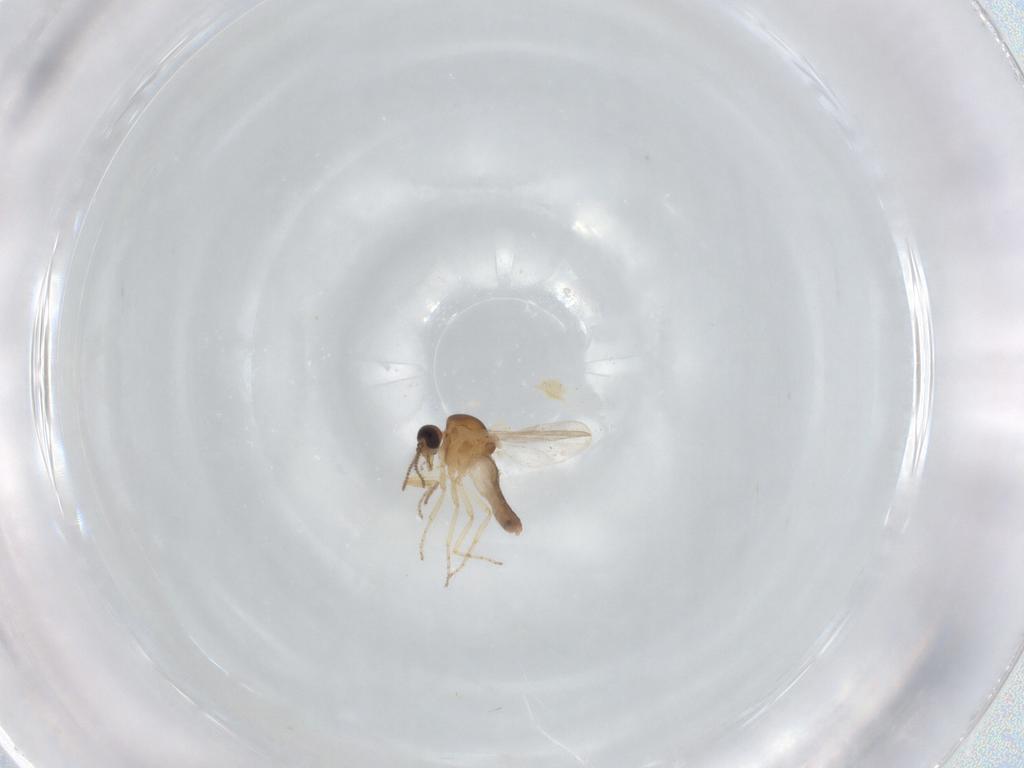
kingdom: Animalia
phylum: Arthropoda
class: Insecta
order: Diptera
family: Ceratopogonidae
